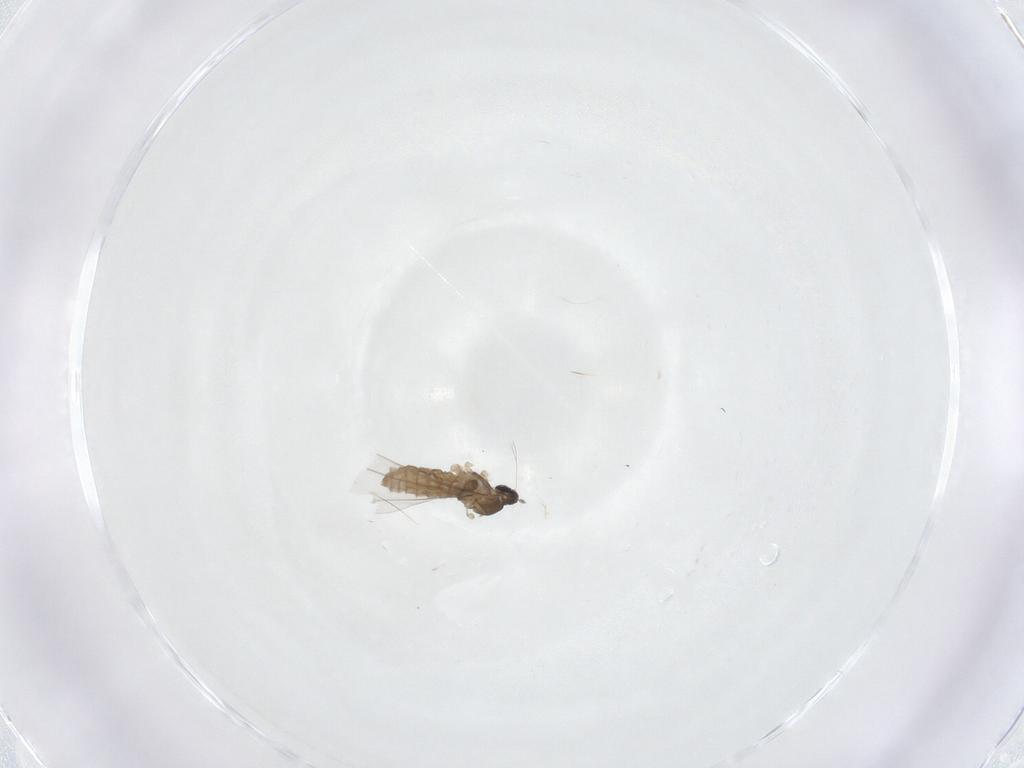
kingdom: Animalia
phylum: Arthropoda
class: Insecta
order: Diptera
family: Cecidomyiidae
